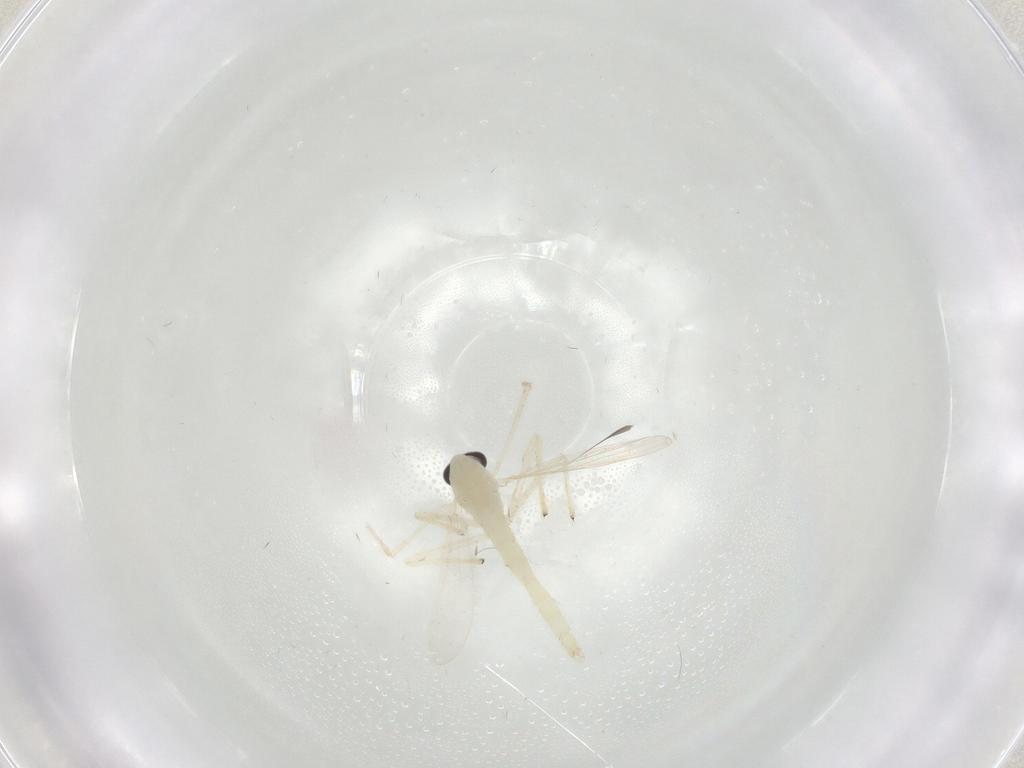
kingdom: Animalia
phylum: Arthropoda
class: Insecta
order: Diptera
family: Chironomidae
